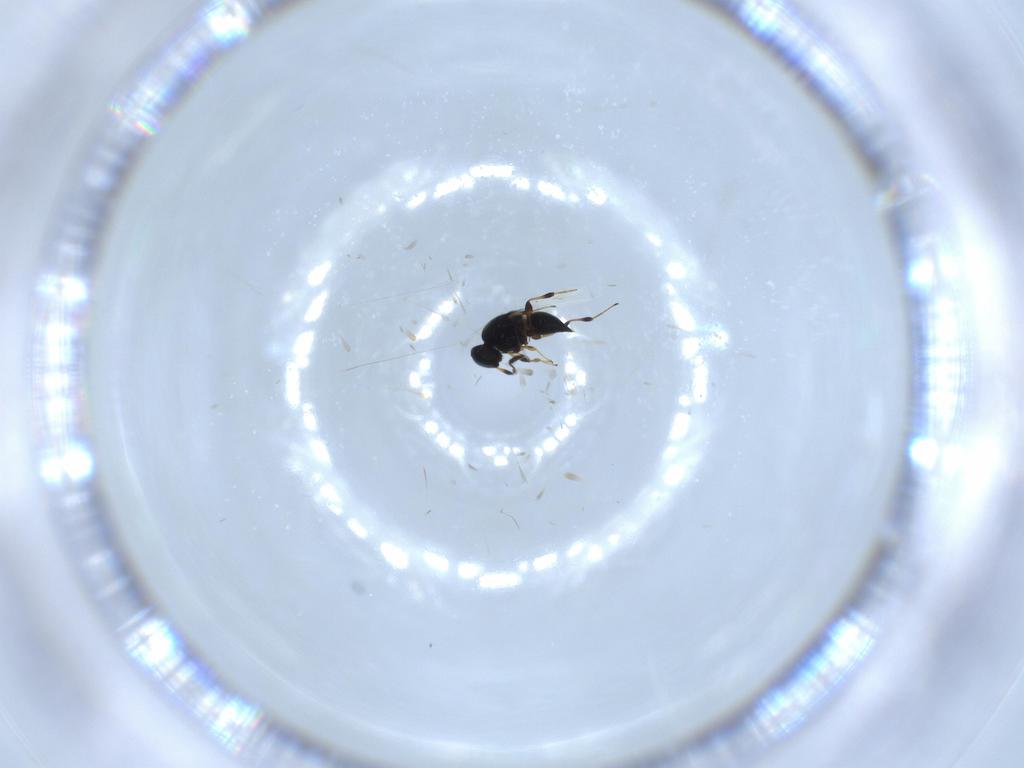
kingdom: Animalia
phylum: Arthropoda
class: Insecta
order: Hymenoptera
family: Platygastridae
